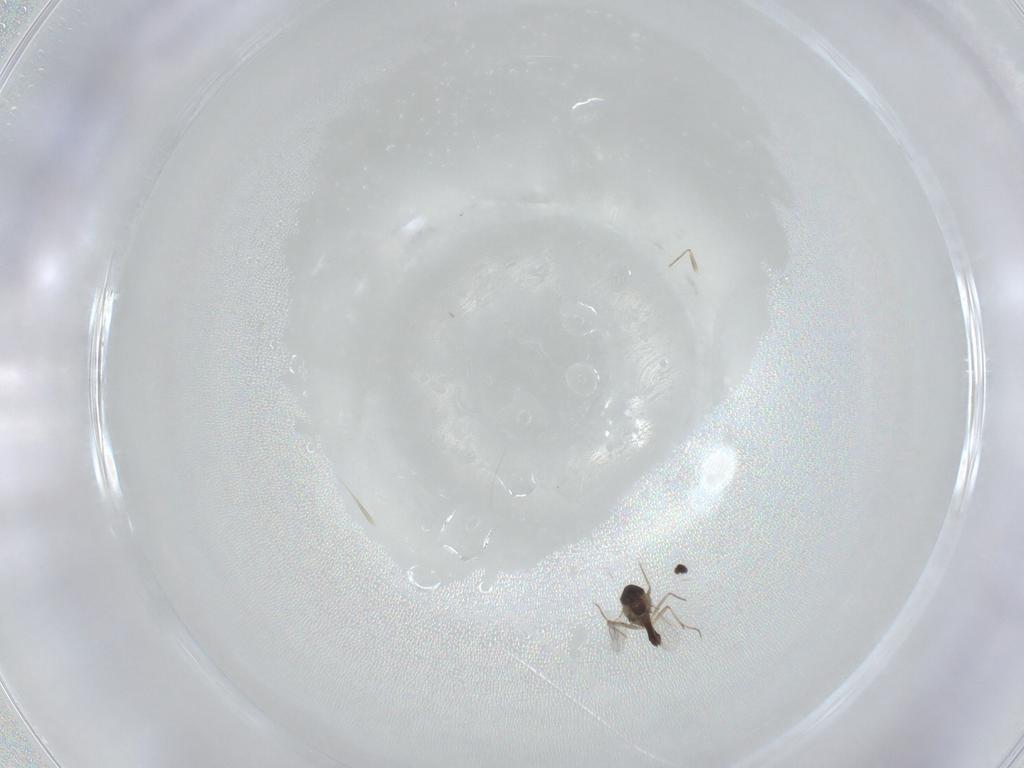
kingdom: Animalia
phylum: Arthropoda
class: Insecta
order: Diptera
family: Chironomidae
